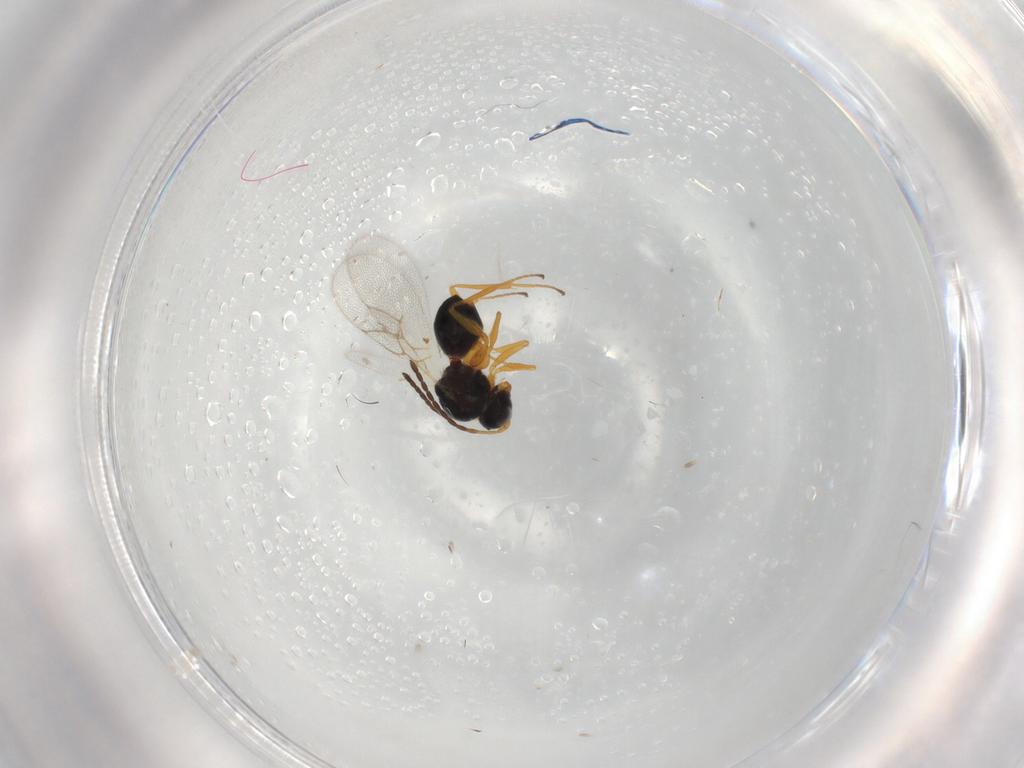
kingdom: Animalia
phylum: Arthropoda
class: Insecta
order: Hymenoptera
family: Figitidae
